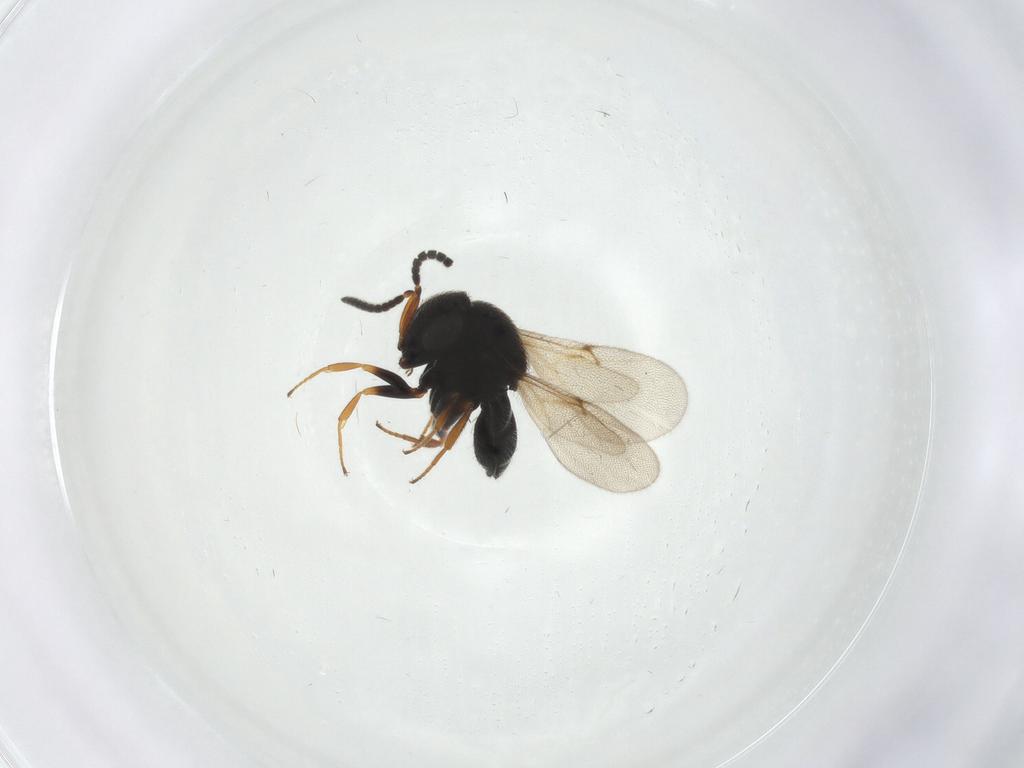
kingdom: Animalia
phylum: Arthropoda
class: Insecta
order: Hymenoptera
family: Scelionidae
